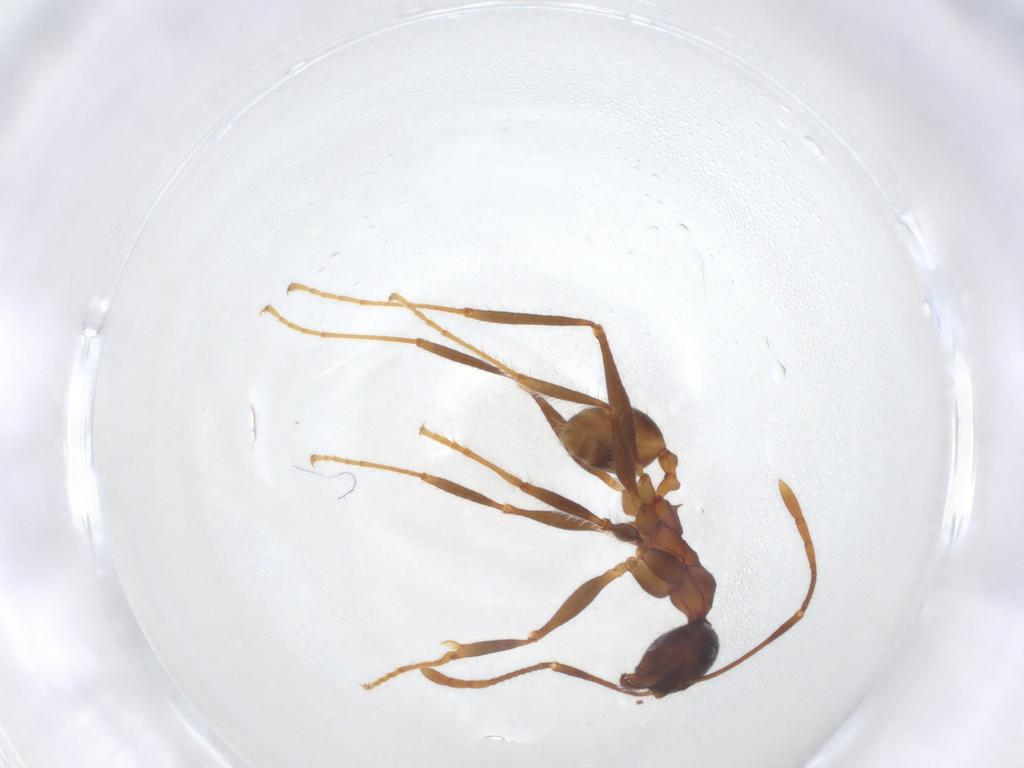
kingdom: Animalia
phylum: Arthropoda
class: Insecta
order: Hymenoptera
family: Formicidae
